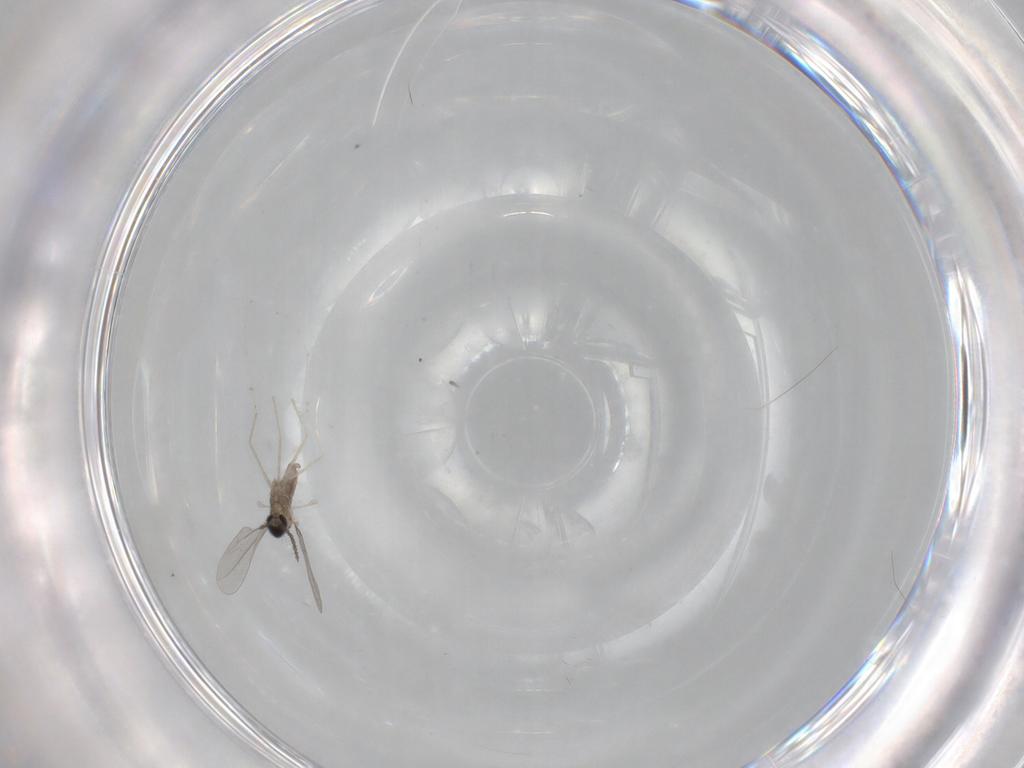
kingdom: Animalia
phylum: Arthropoda
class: Insecta
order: Diptera
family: Cecidomyiidae
